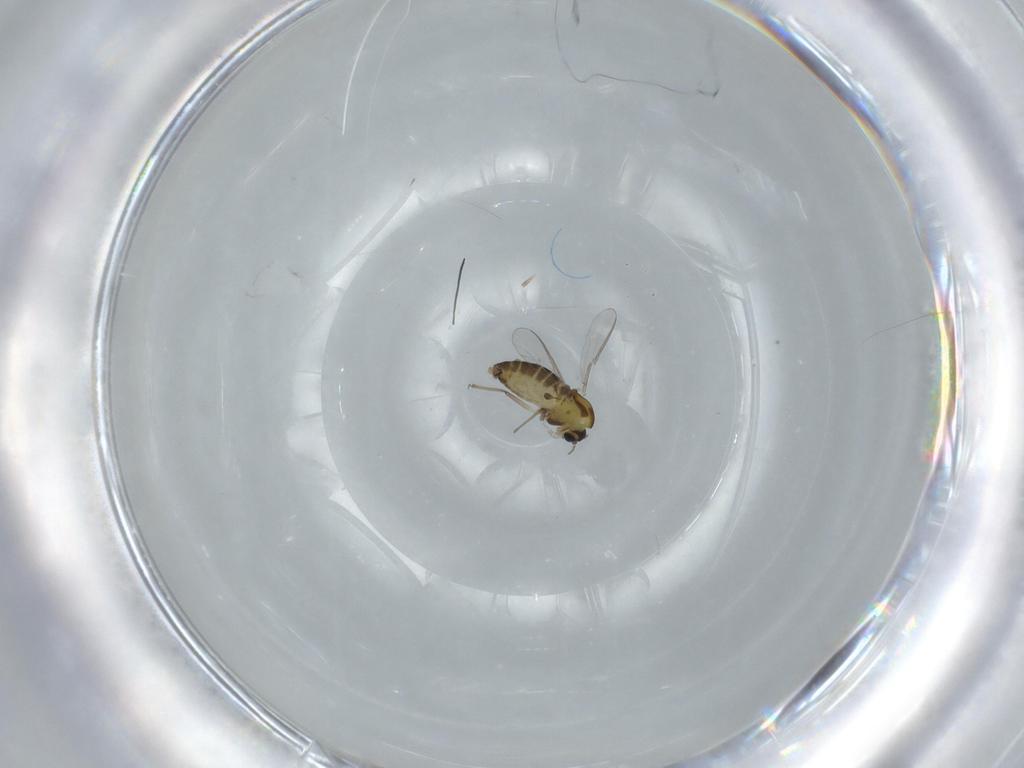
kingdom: Animalia
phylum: Arthropoda
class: Insecta
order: Diptera
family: Chironomidae
